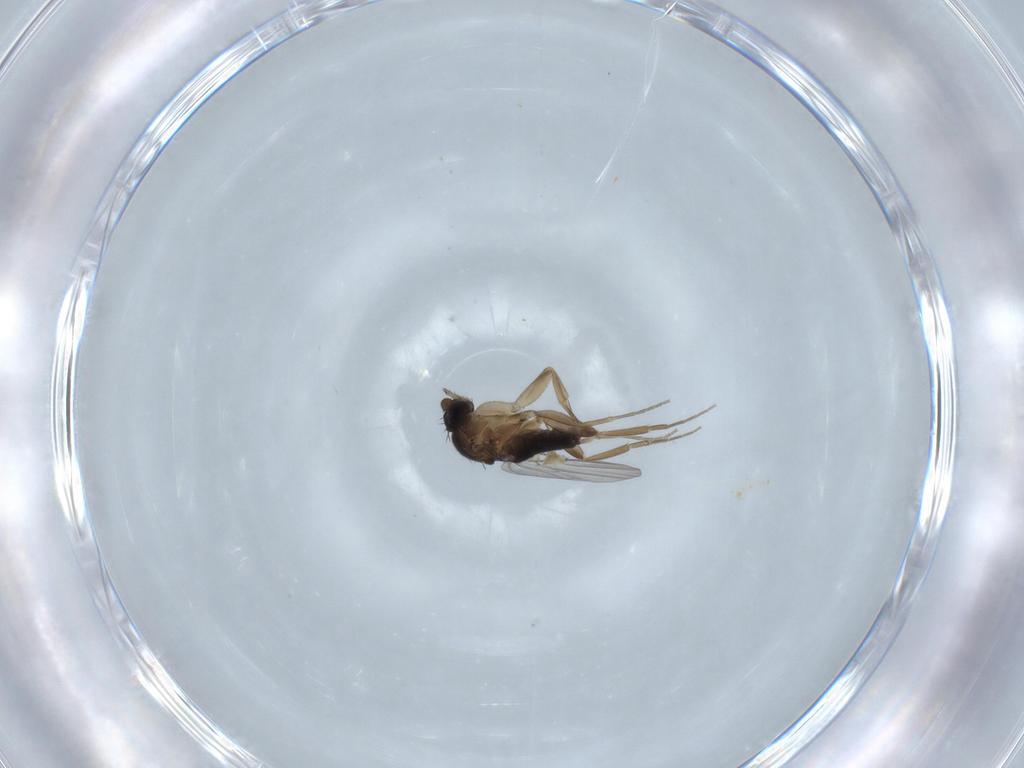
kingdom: Animalia
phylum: Arthropoda
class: Insecta
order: Diptera
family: Phoridae
